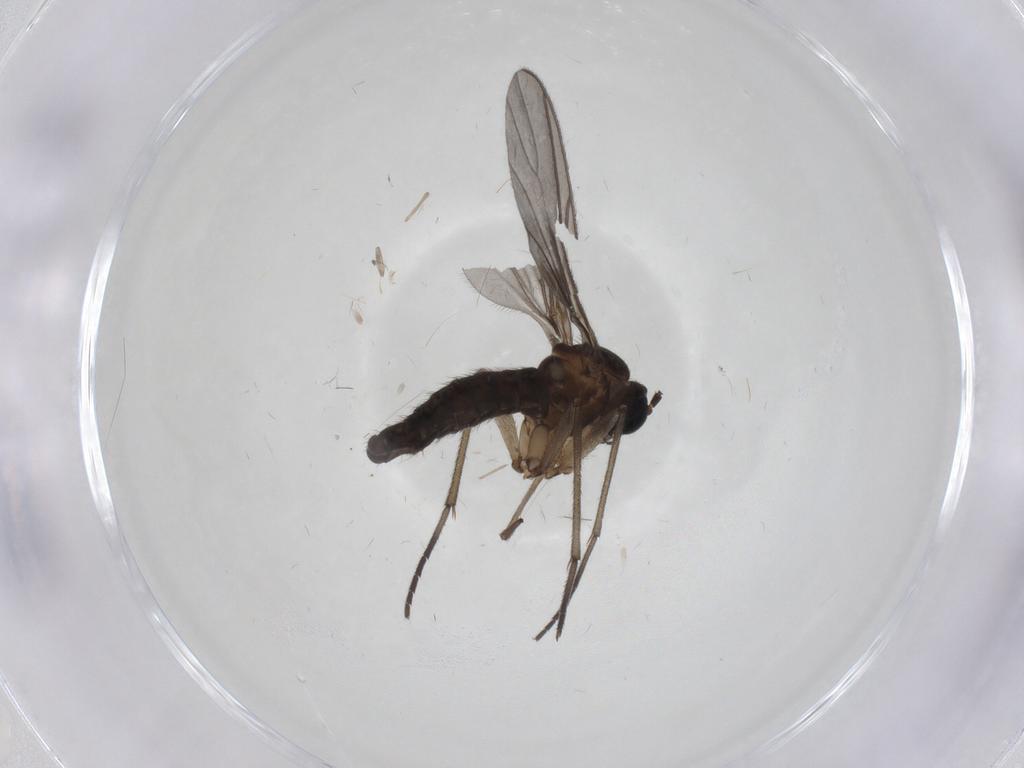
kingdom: Animalia
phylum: Arthropoda
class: Insecta
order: Diptera
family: Sciaridae
